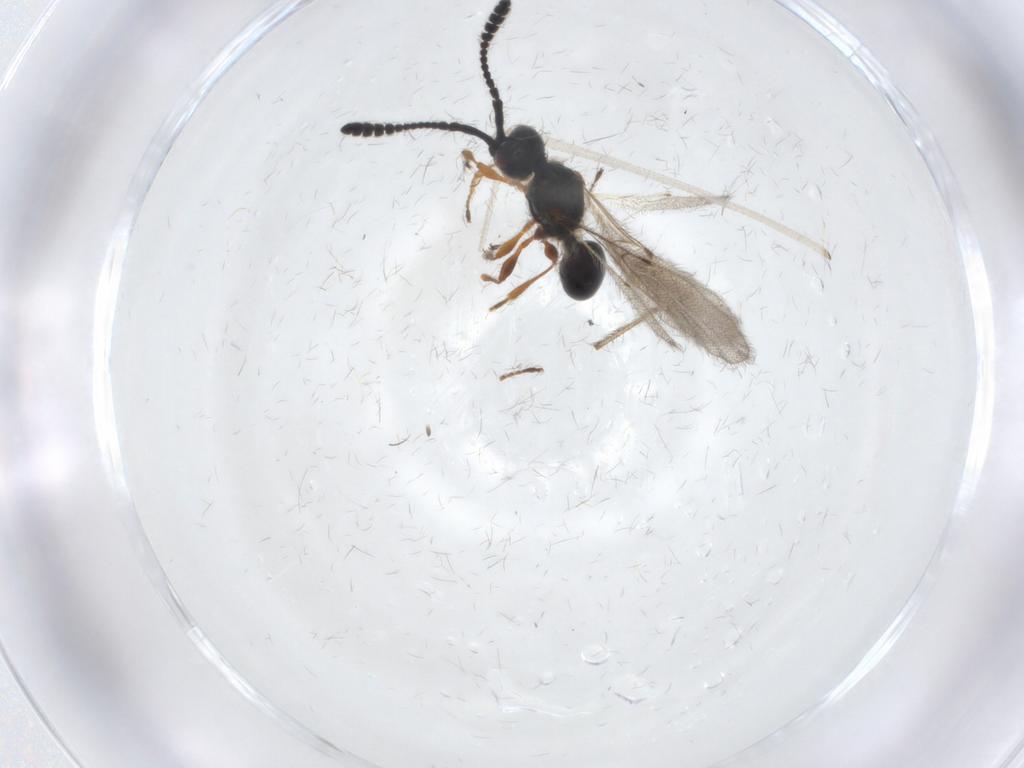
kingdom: Animalia
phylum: Arthropoda
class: Insecta
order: Hymenoptera
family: Diapriidae
